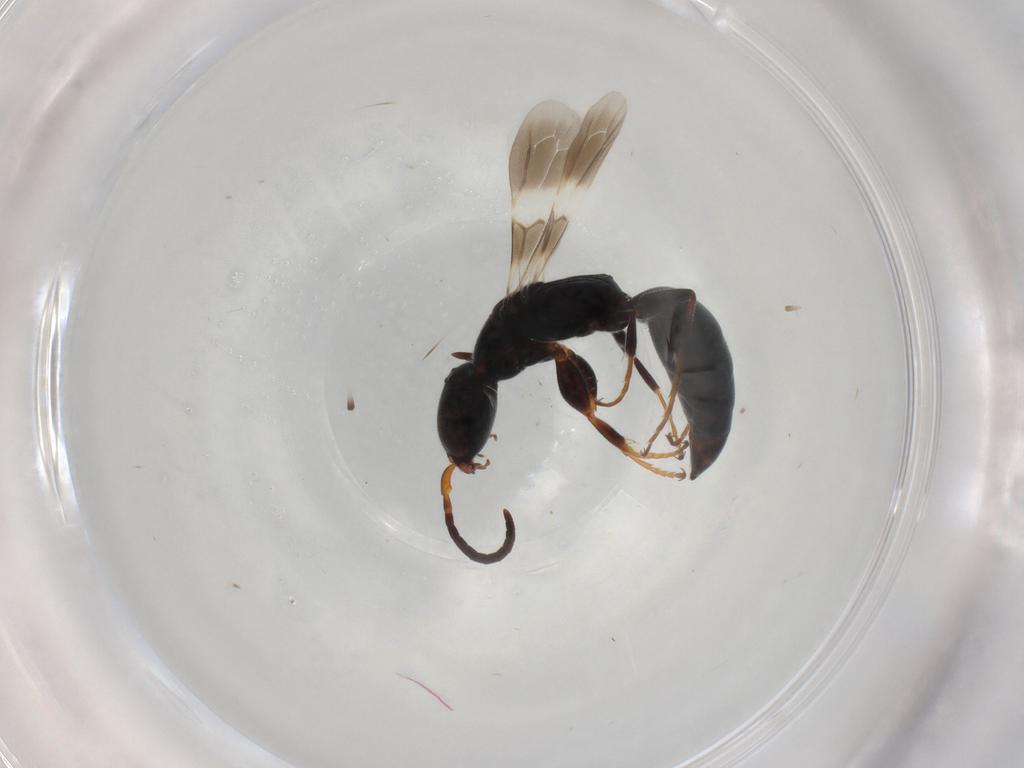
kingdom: Animalia
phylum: Arthropoda
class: Insecta
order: Hymenoptera
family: Bethylidae
